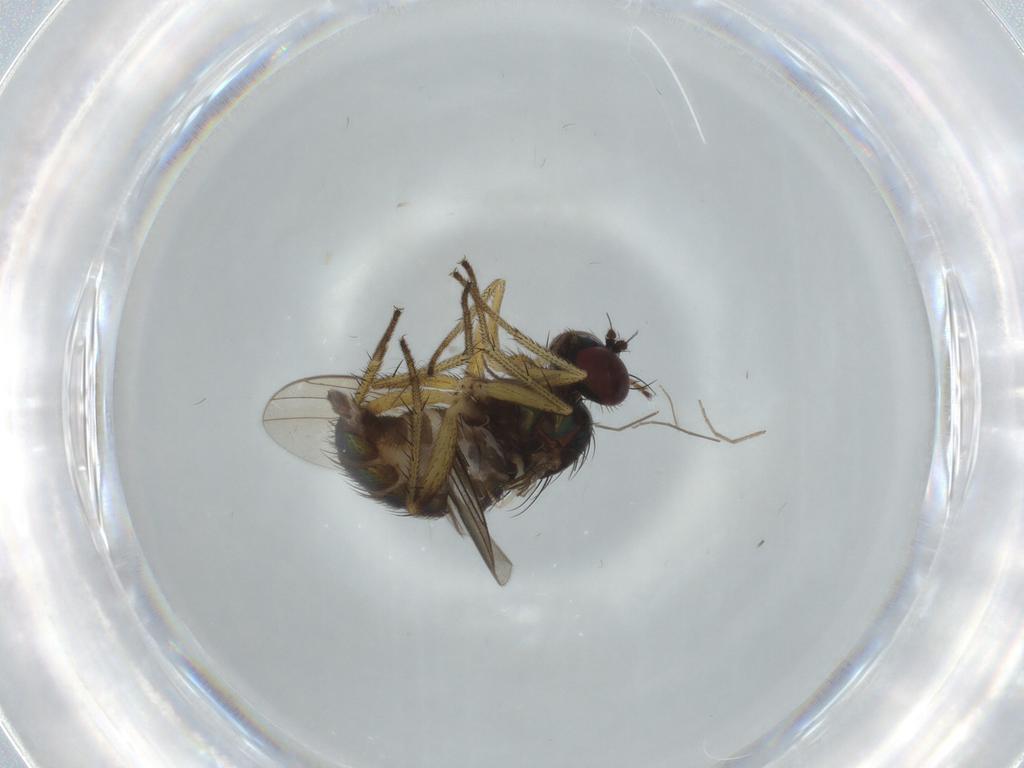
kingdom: Animalia
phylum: Arthropoda
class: Insecta
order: Diptera
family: Dolichopodidae
